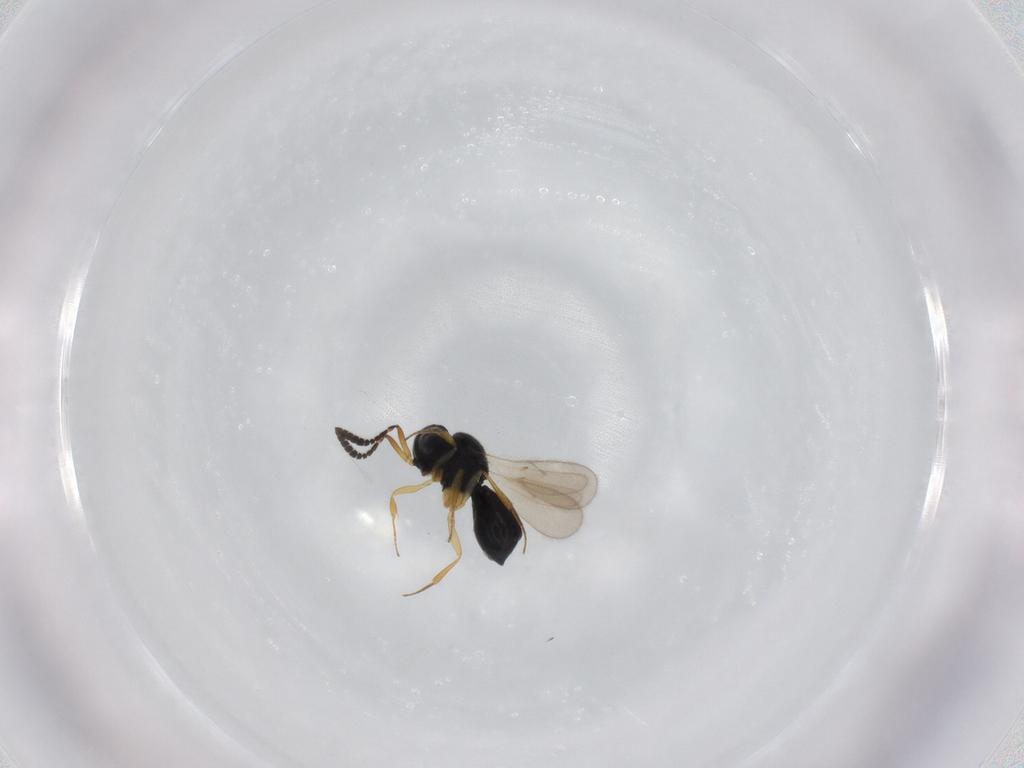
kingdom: Animalia
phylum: Arthropoda
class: Insecta
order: Hymenoptera
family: Scelionidae
